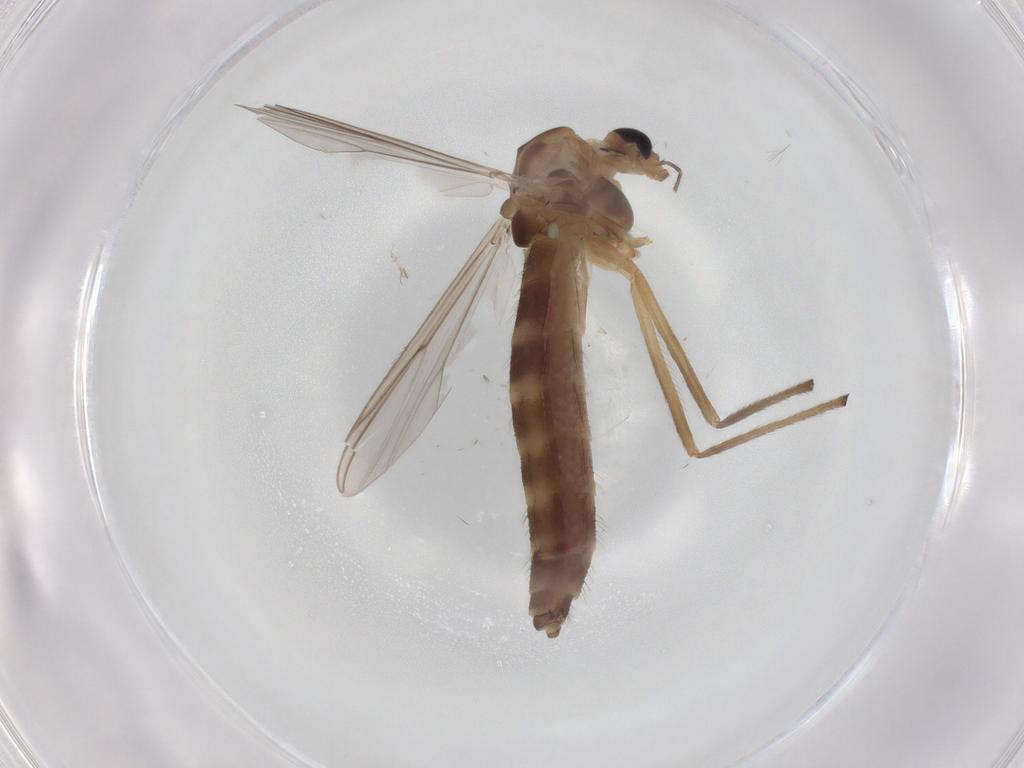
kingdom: Animalia
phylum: Arthropoda
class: Insecta
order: Diptera
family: Chironomidae
